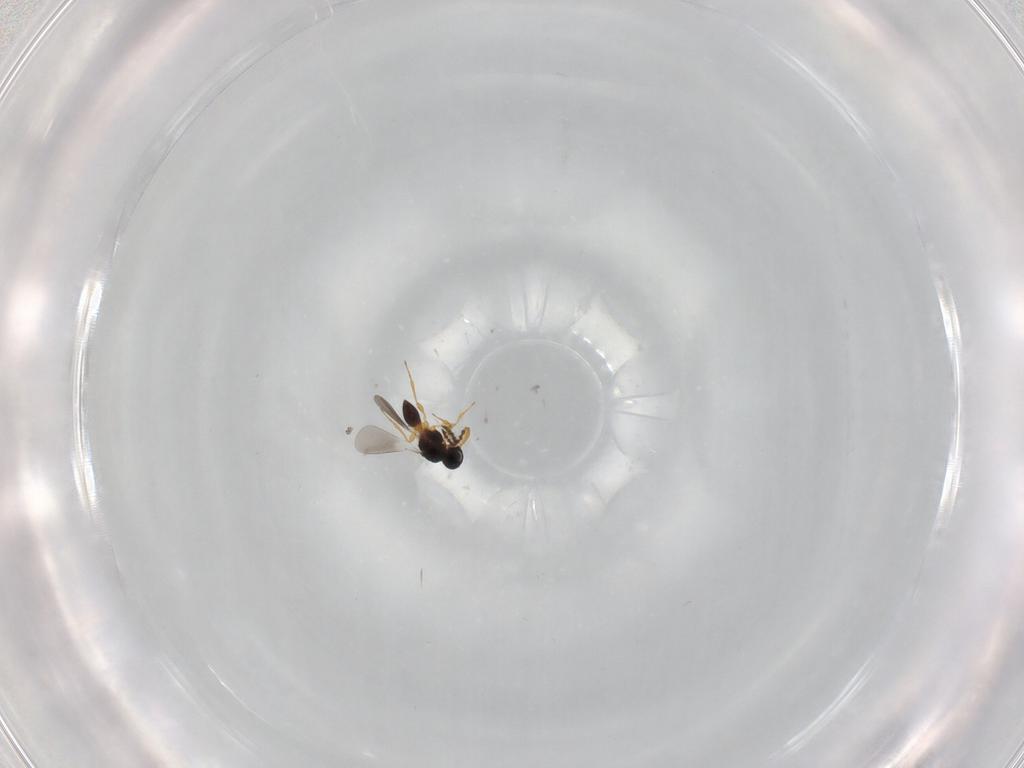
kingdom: Animalia
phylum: Arthropoda
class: Insecta
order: Hymenoptera
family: Platygastridae
